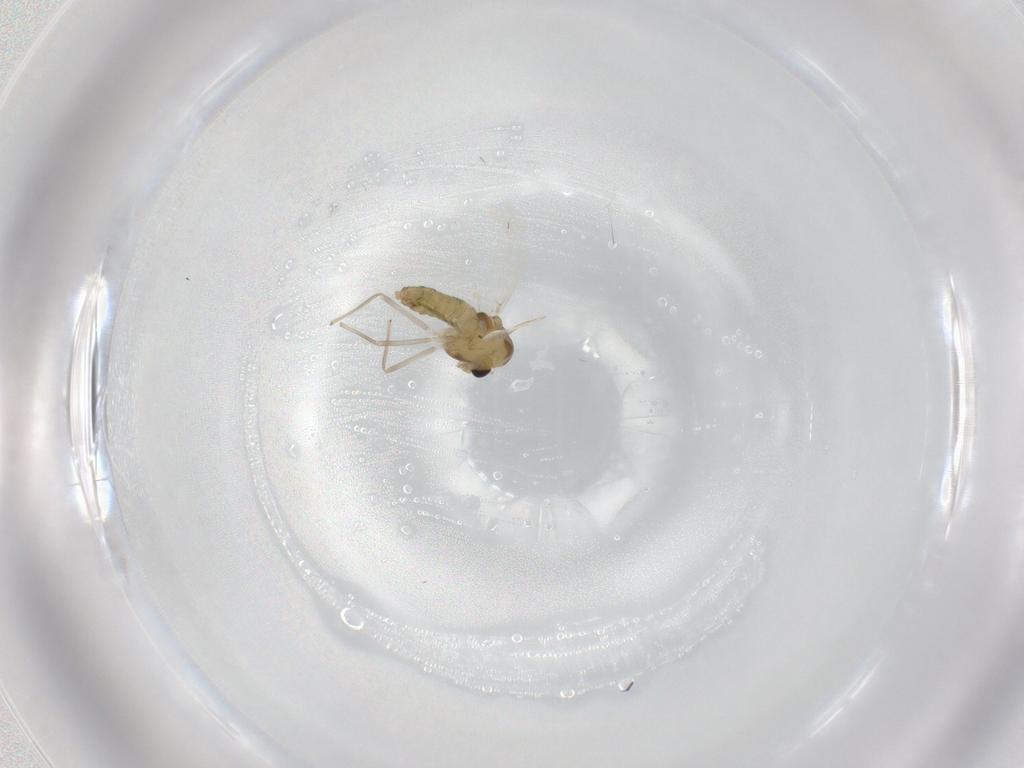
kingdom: Animalia
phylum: Arthropoda
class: Insecta
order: Diptera
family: Chironomidae
